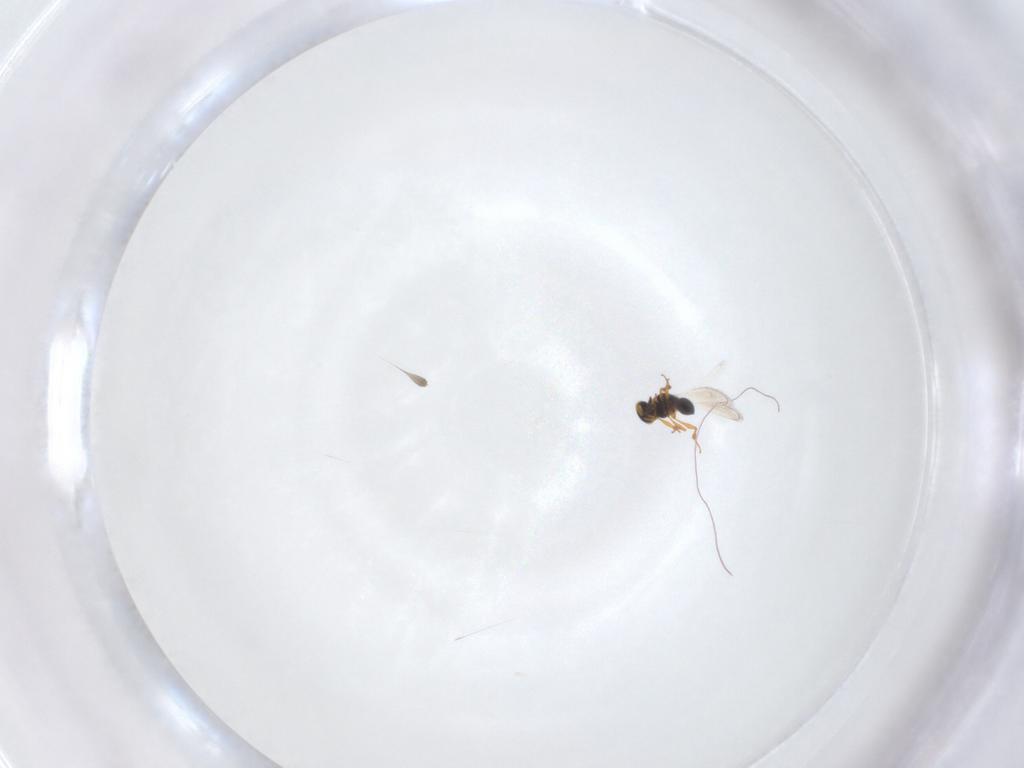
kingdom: Animalia
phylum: Arthropoda
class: Insecta
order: Hymenoptera
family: Platygastridae
